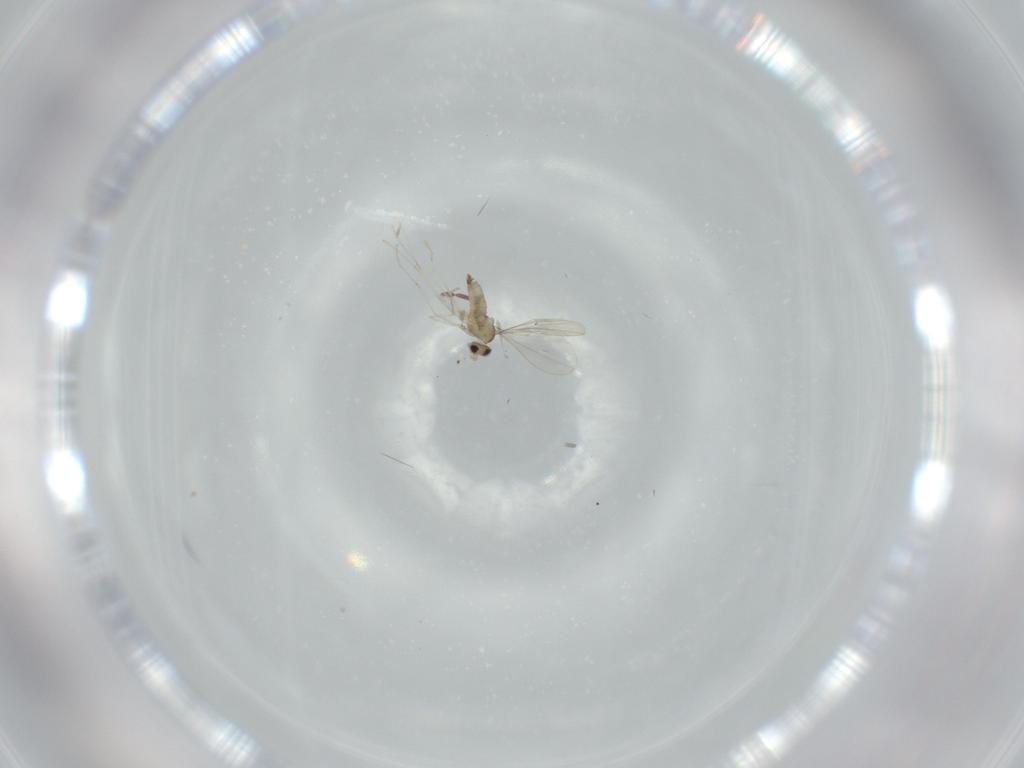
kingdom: Animalia
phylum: Arthropoda
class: Insecta
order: Diptera
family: Cecidomyiidae
